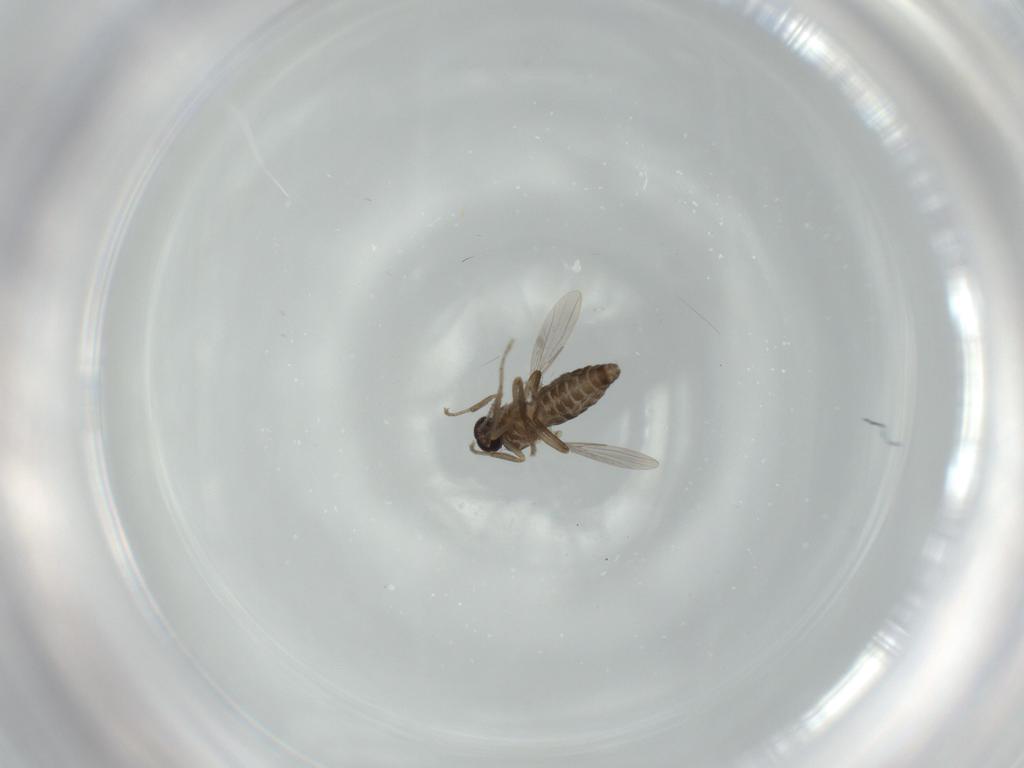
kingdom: Animalia
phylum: Arthropoda
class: Insecta
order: Diptera
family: Ceratopogonidae
